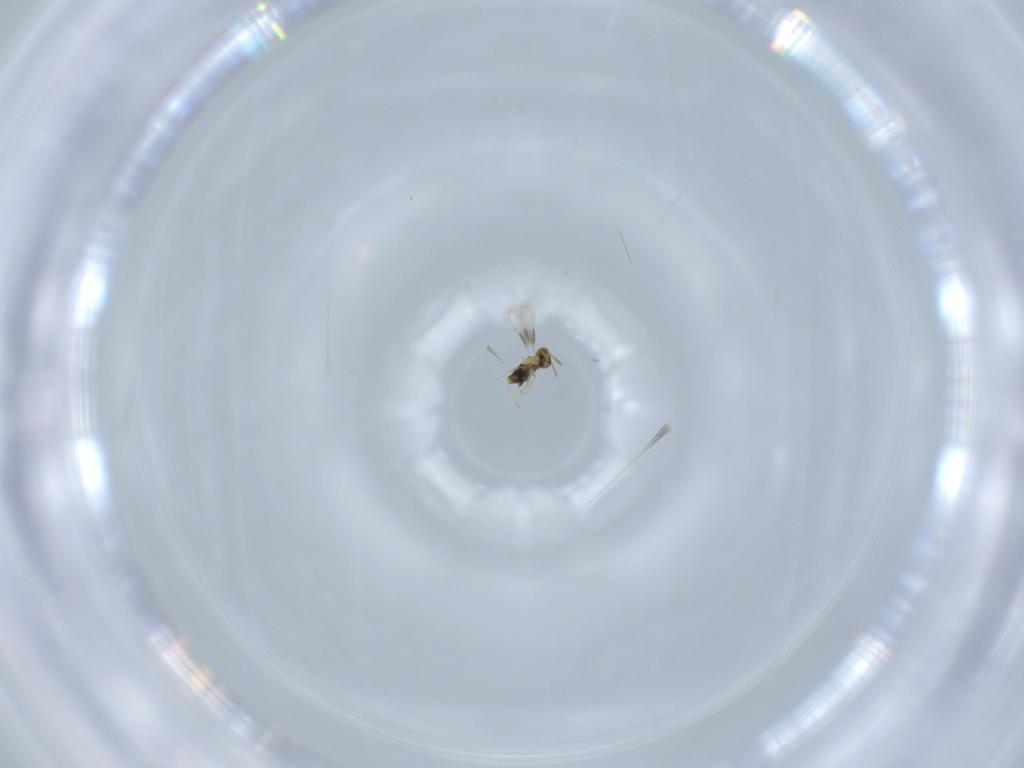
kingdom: Animalia
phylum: Arthropoda
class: Insecta
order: Hymenoptera
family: Aphelinidae
